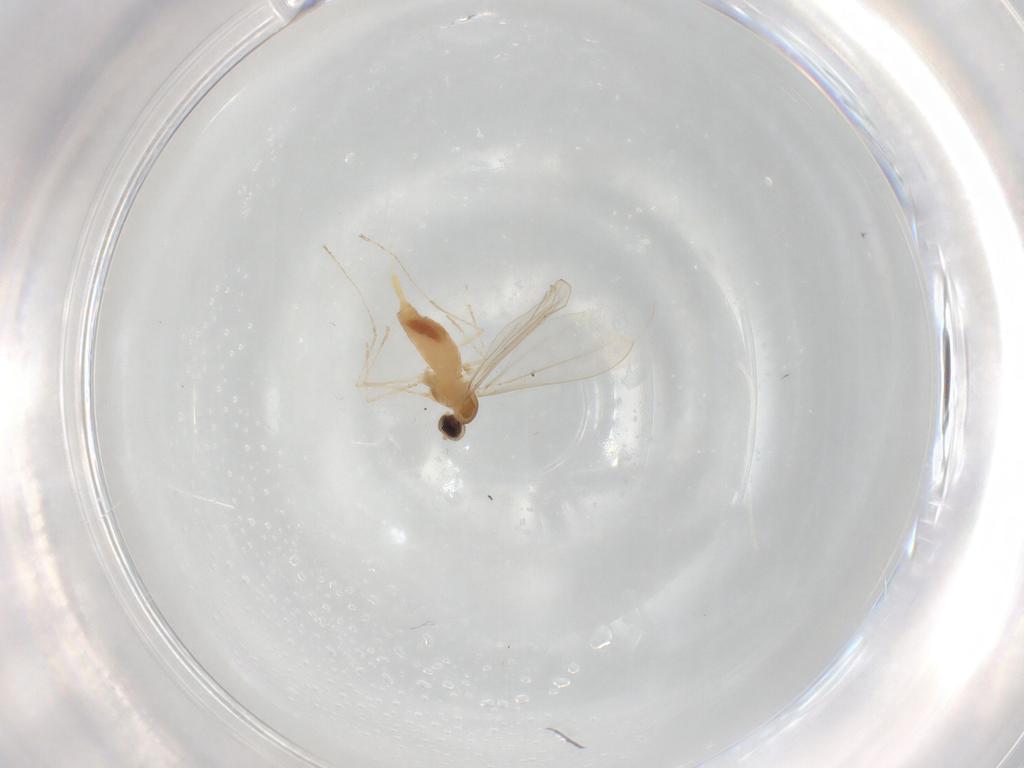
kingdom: Animalia
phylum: Arthropoda
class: Insecta
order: Diptera
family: Cecidomyiidae
